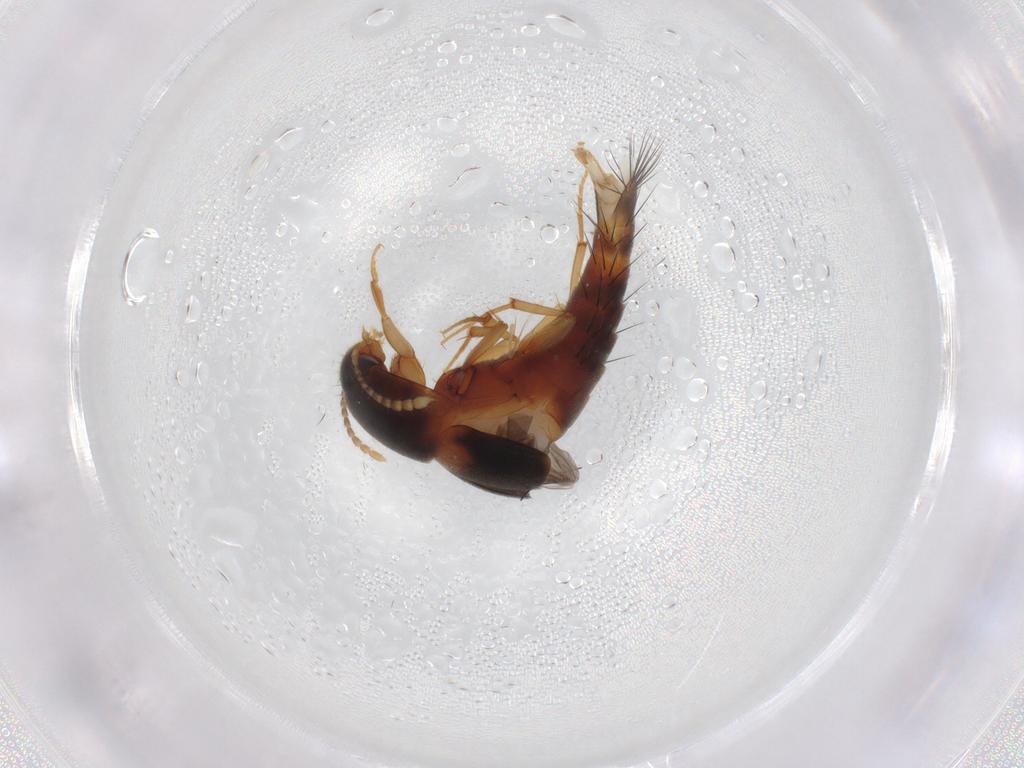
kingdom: Animalia
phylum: Arthropoda
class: Insecta
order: Coleoptera
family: Staphylinidae
